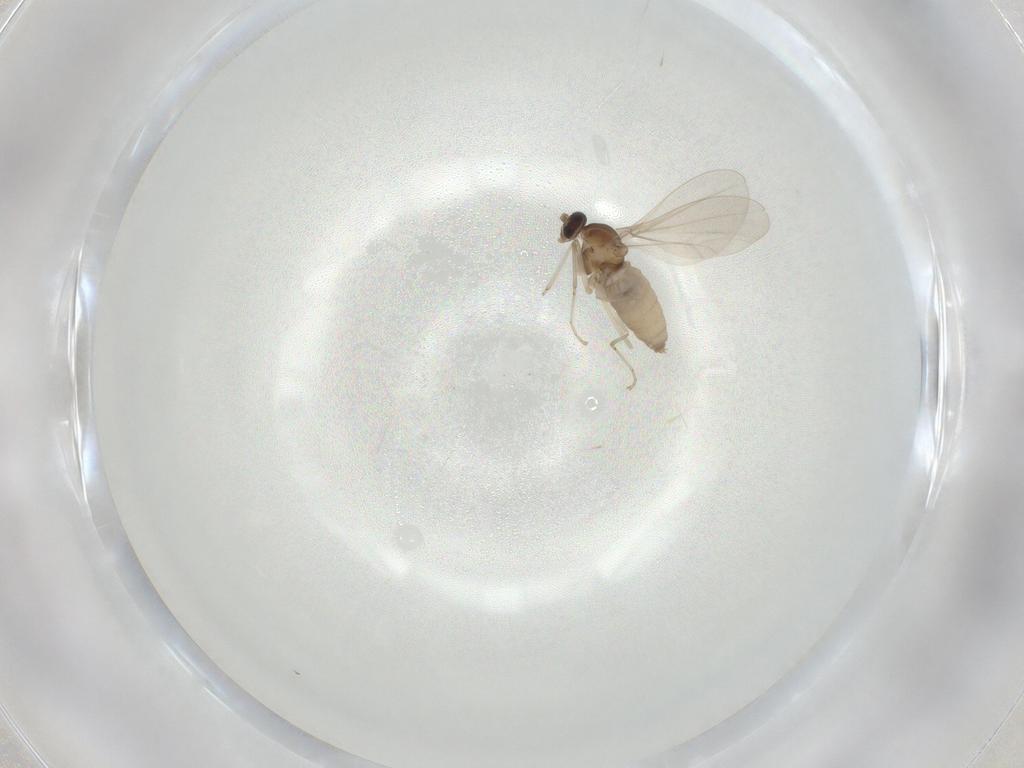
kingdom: Animalia
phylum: Arthropoda
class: Insecta
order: Diptera
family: Cecidomyiidae
